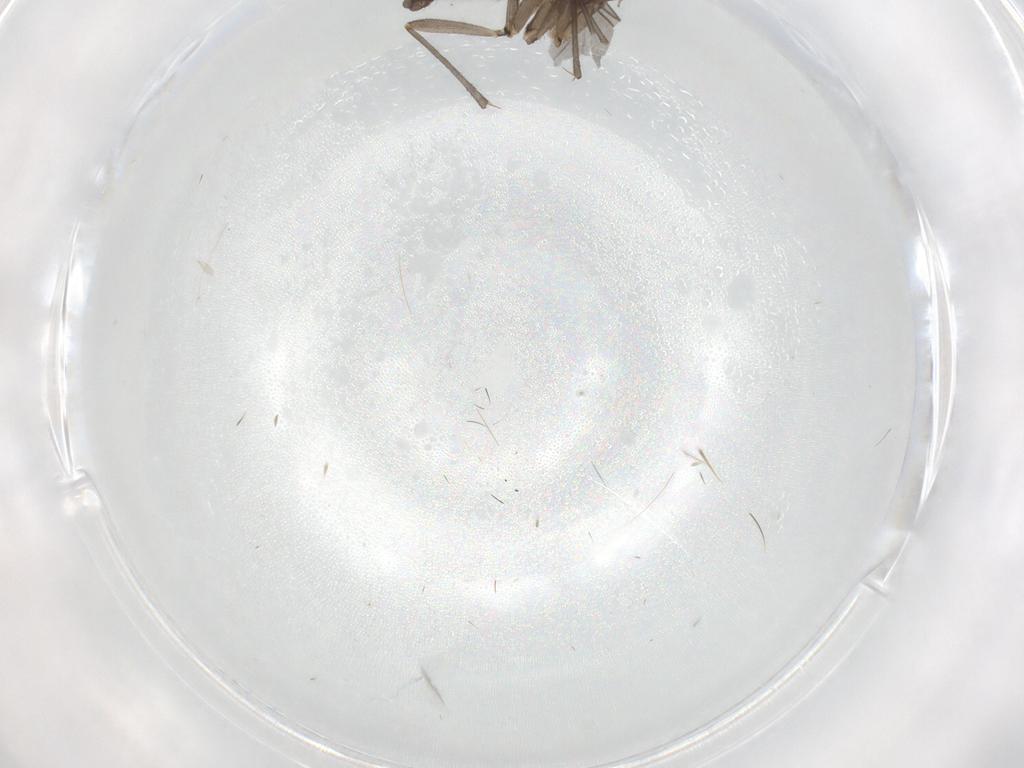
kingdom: Animalia
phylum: Arthropoda
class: Insecta
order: Diptera
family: Sciaridae
